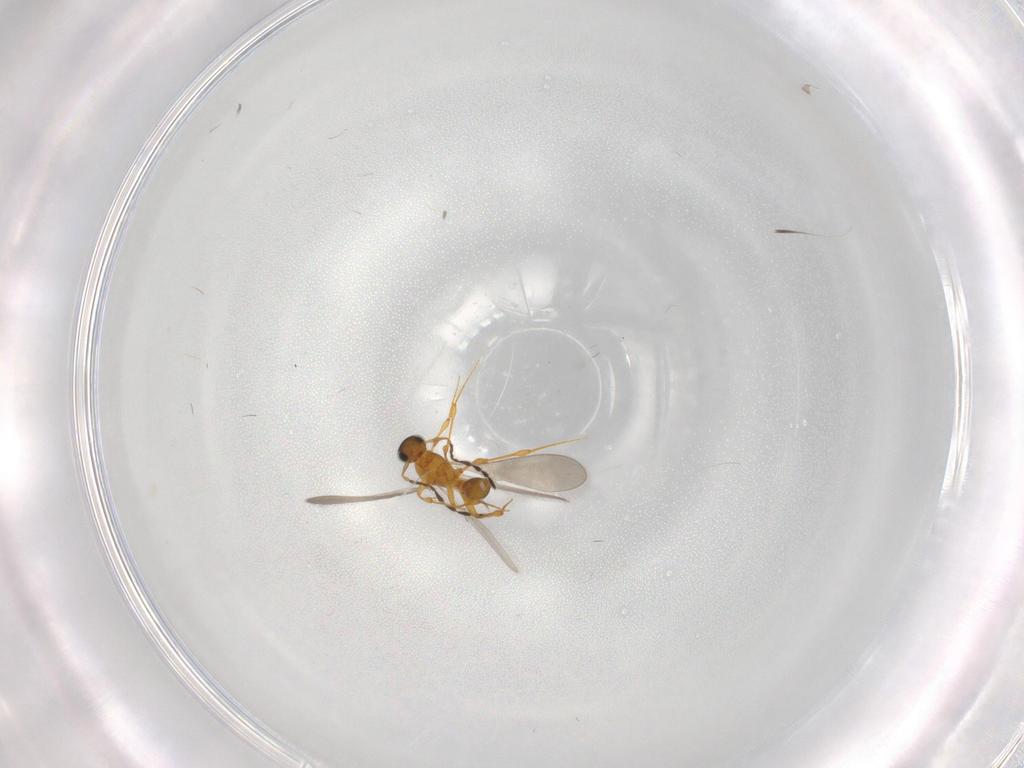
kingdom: Animalia
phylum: Arthropoda
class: Insecta
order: Hymenoptera
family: Platygastridae
